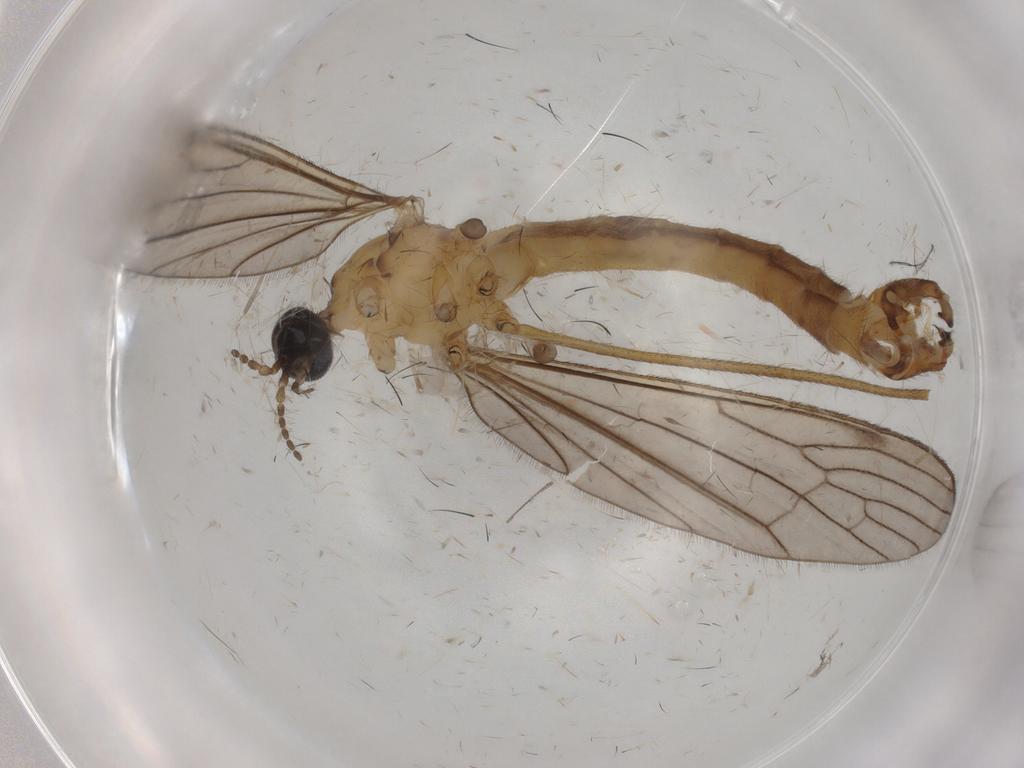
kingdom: Animalia
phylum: Arthropoda
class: Insecta
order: Diptera
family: Limoniidae
